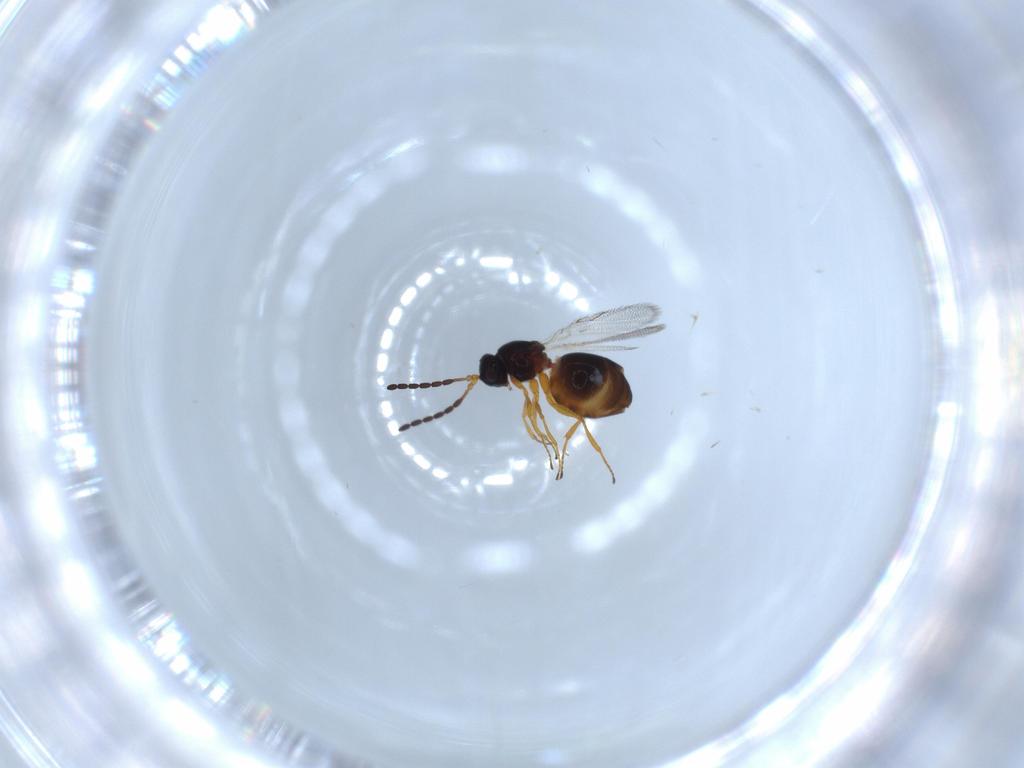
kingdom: Animalia
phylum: Arthropoda
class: Insecta
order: Hymenoptera
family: Figitidae
